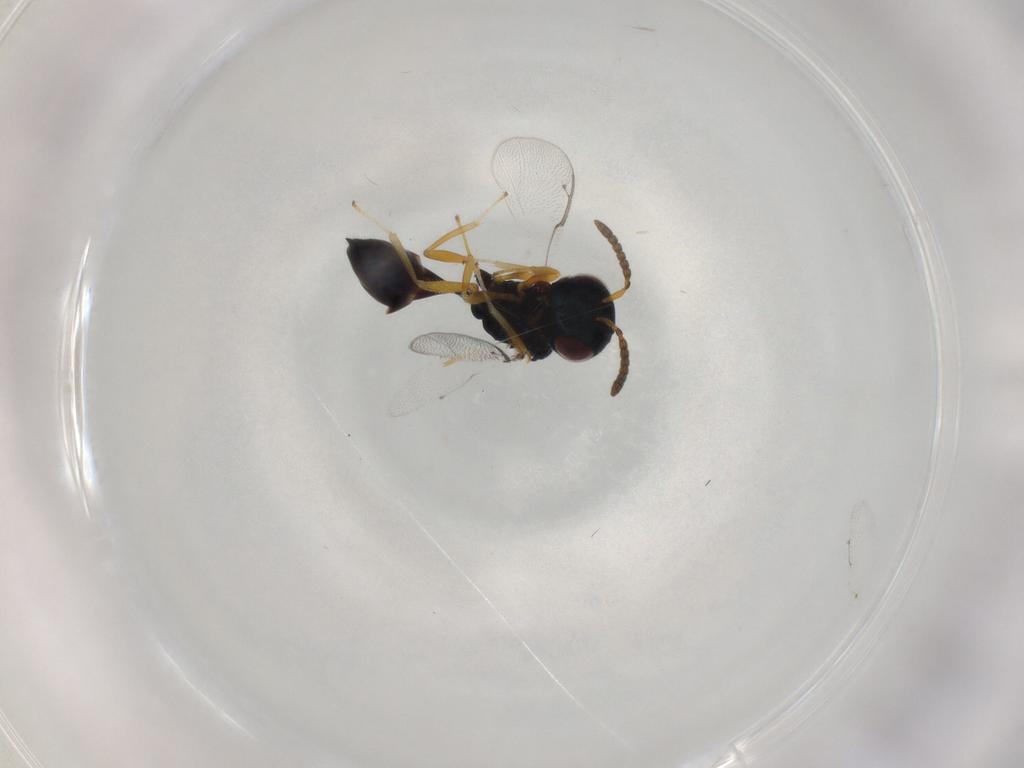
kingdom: Animalia
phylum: Arthropoda
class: Insecta
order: Hymenoptera
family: Pteromalidae
